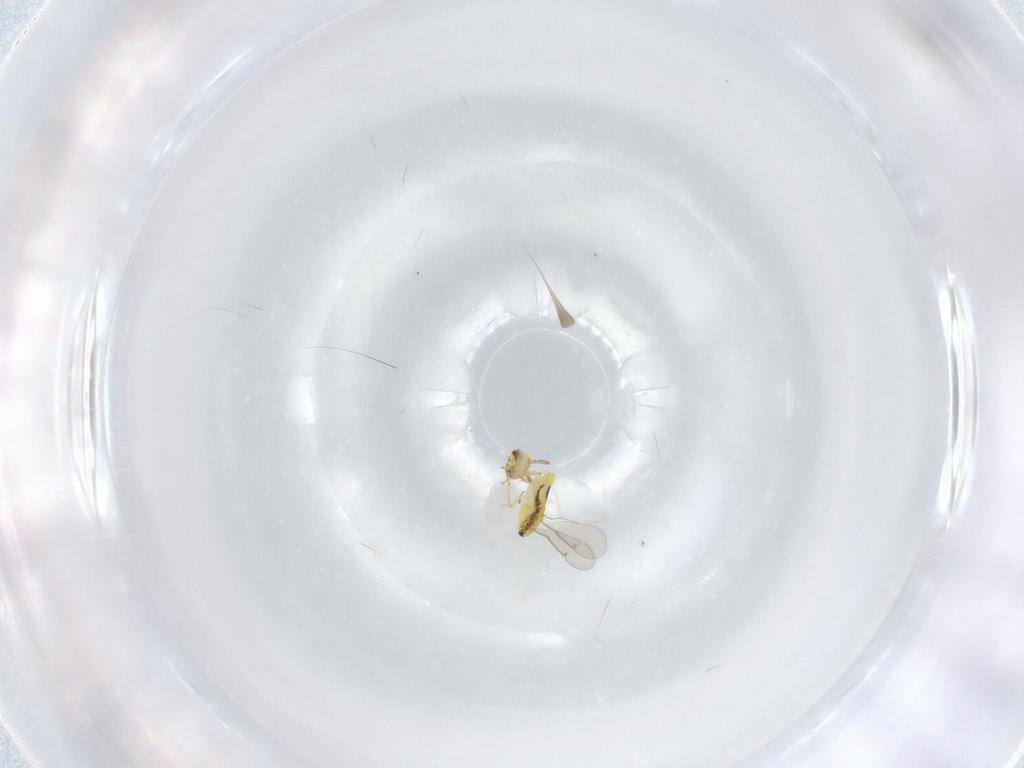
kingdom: Animalia
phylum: Arthropoda
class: Insecta
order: Hymenoptera
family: Aphelinidae
